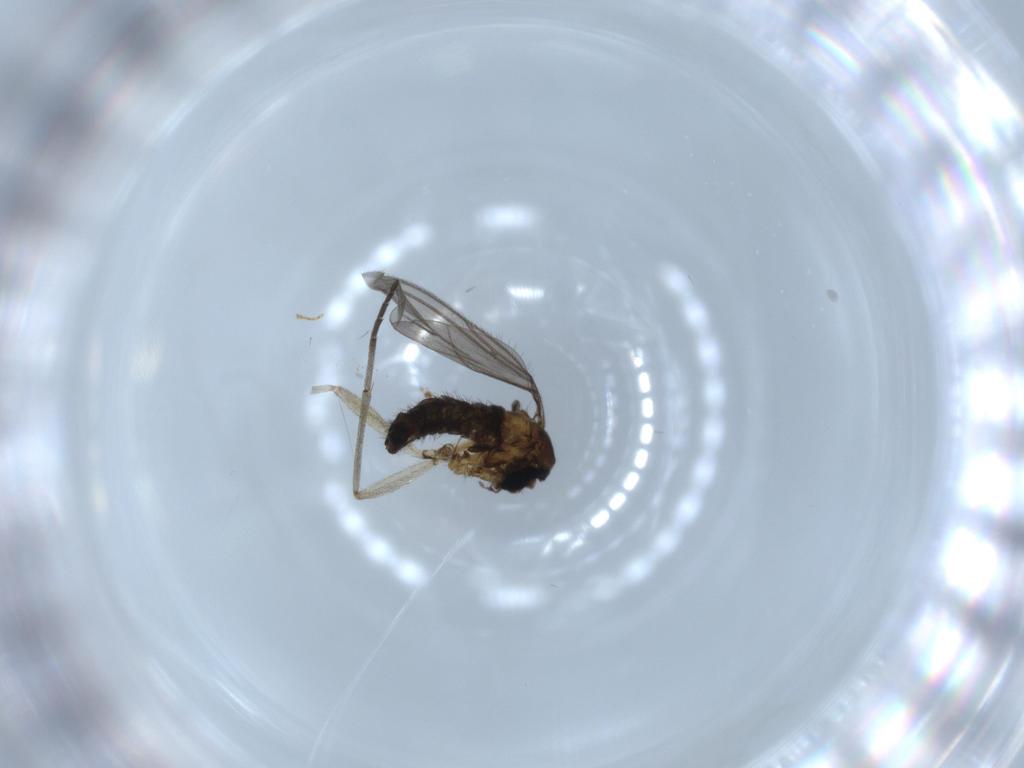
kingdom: Animalia
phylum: Arthropoda
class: Insecta
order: Diptera
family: Sciaridae
